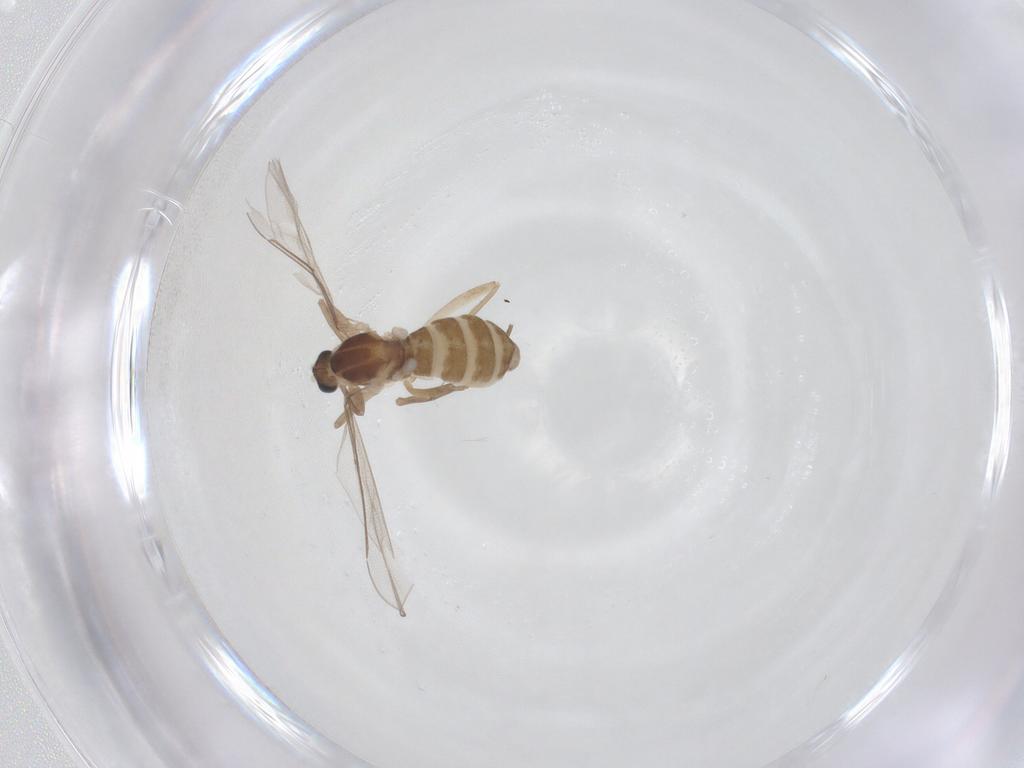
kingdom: Animalia
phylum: Arthropoda
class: Insecta
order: Diptera
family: Cecidomyiidae
